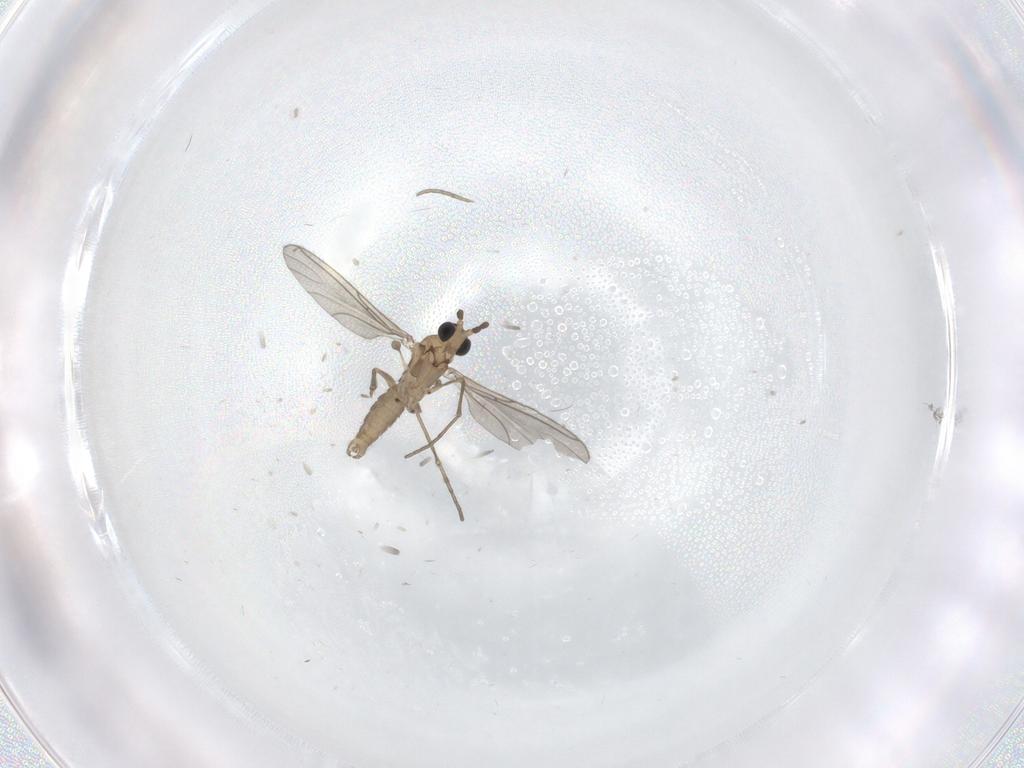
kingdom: Animalia
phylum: Arthropoda
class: Insecta
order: Diptera
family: Sciaridae
